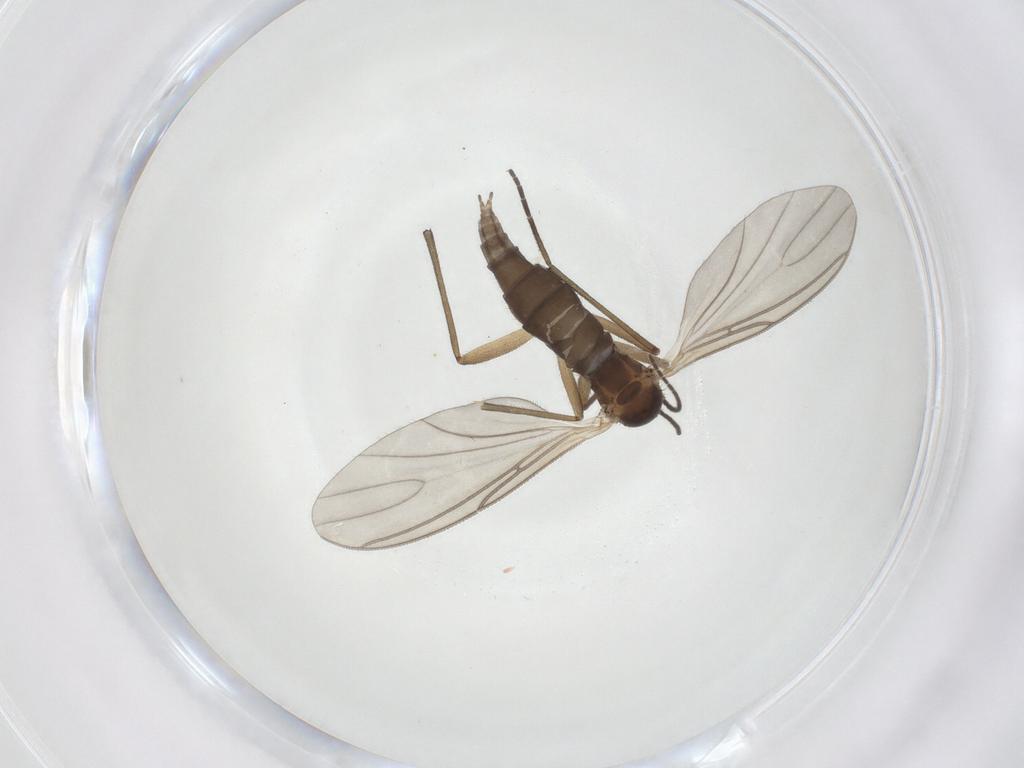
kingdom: Animalia
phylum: Arthropoda
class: Insecta
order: Diptera
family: Sciaridae
